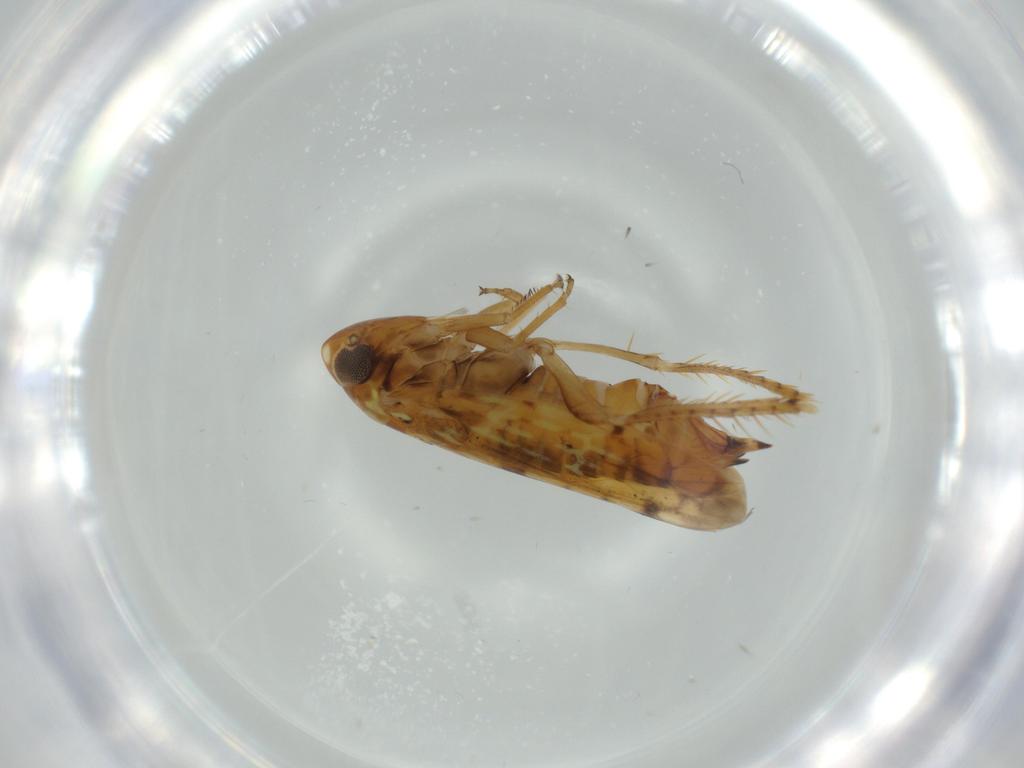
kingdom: Animalia
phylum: Arthropoda
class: Insecta
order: Hemiptera
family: Cicadellidae
